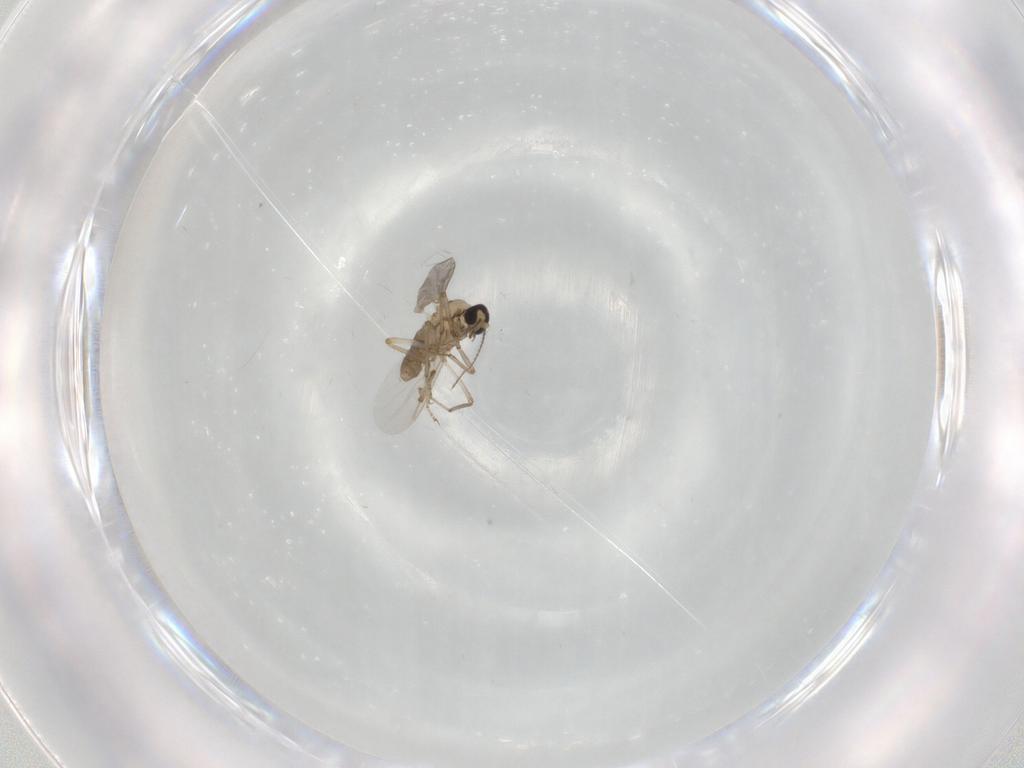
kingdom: Animalia
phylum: Arthropoda
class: Insecta
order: Diptera
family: Ceratopogonidae
